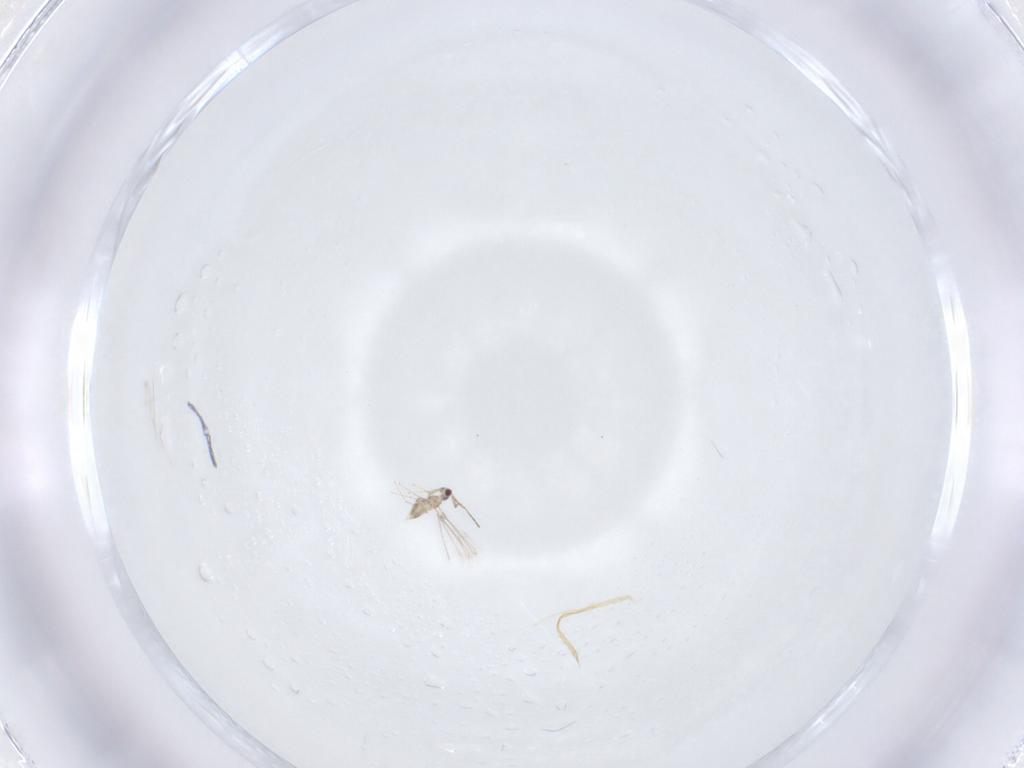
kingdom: Animalia
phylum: Arthropoda
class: Insecta
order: Hymenoptera
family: Mymaridae
